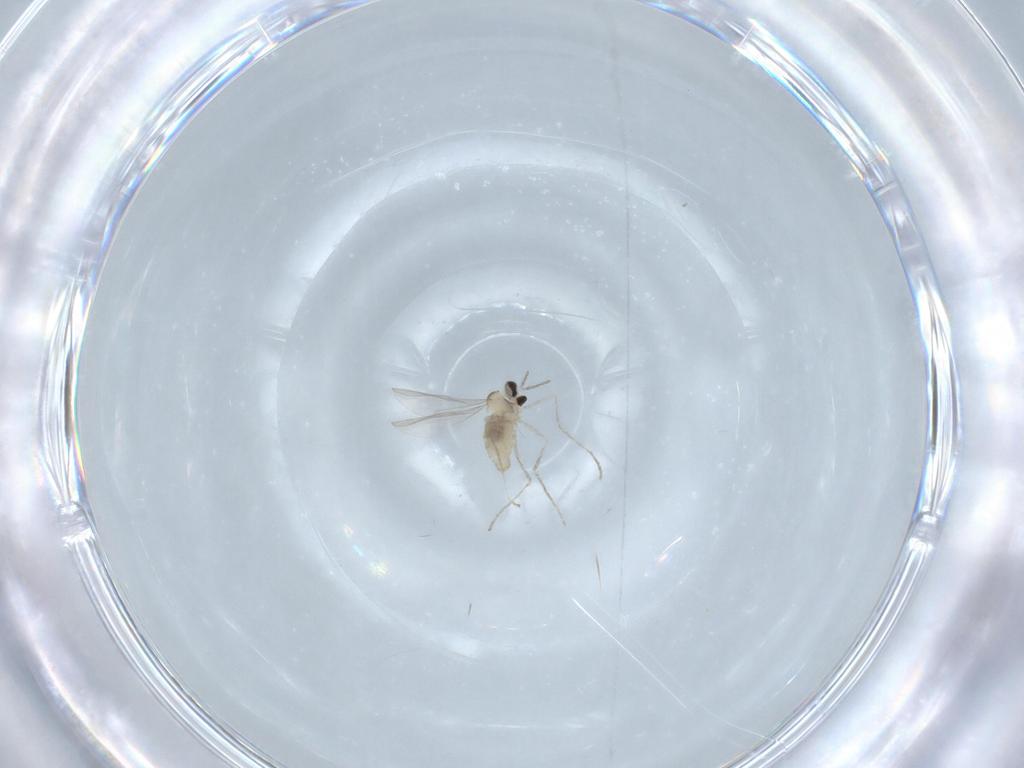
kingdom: Animalia
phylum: Arthropoda
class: Insecta
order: Diptera
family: Cecidomyiidae
